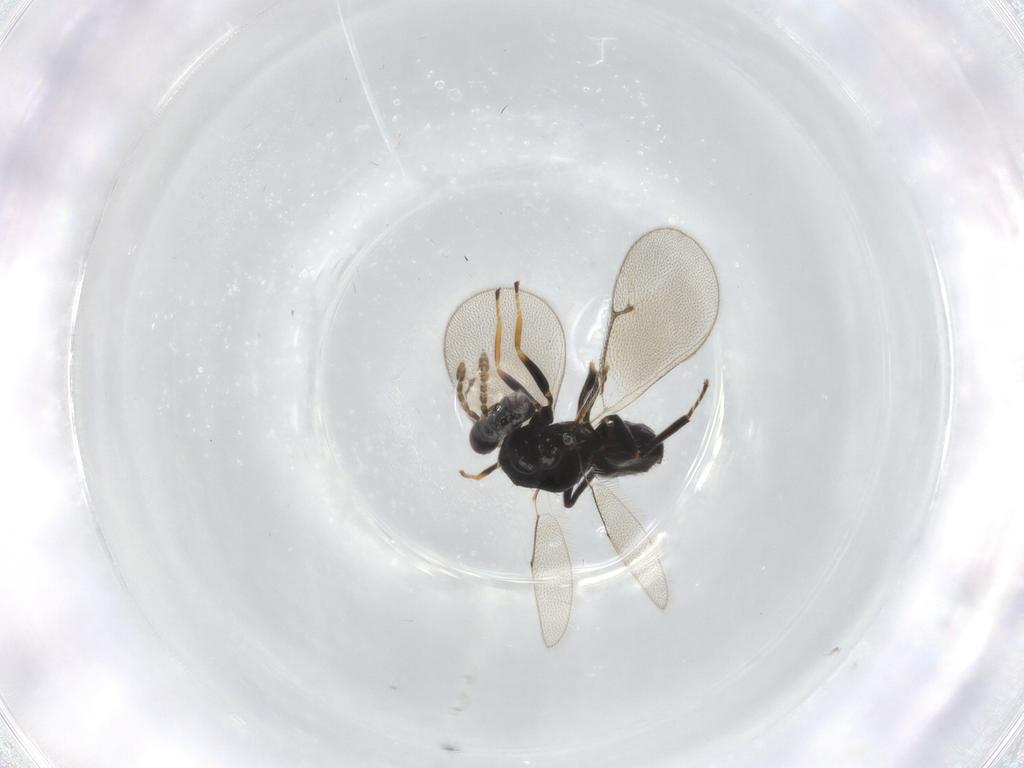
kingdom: Animalia
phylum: Arthropoda
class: Insecta
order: Hymenoptera
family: Eulophidae
